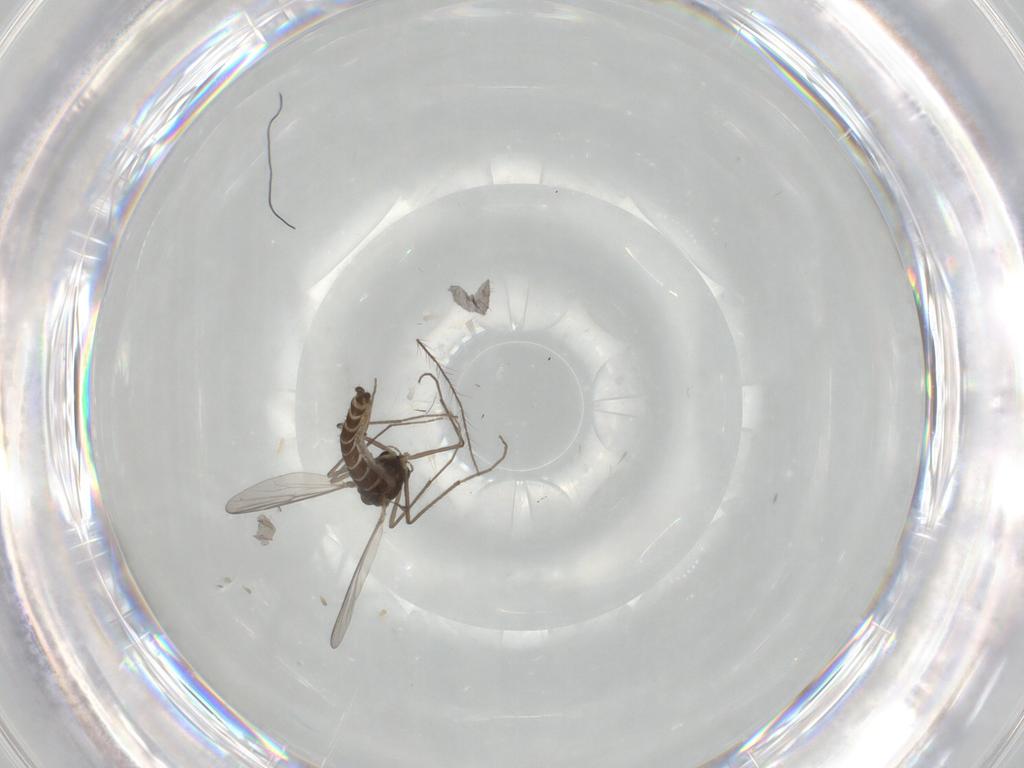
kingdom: Animalia
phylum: Arthropoda
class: Insecta
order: Diptera
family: Chironomidae
